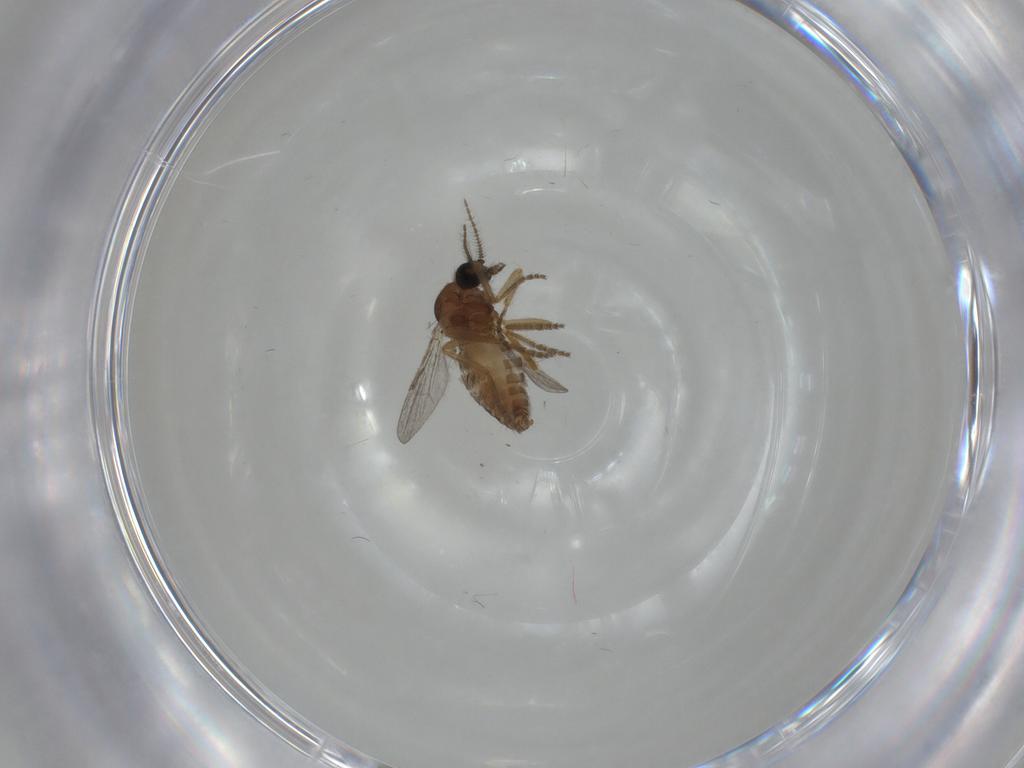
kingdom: Animalia
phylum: Arthropoda
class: Insecta
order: Diptera
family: Ceratopogonidae
